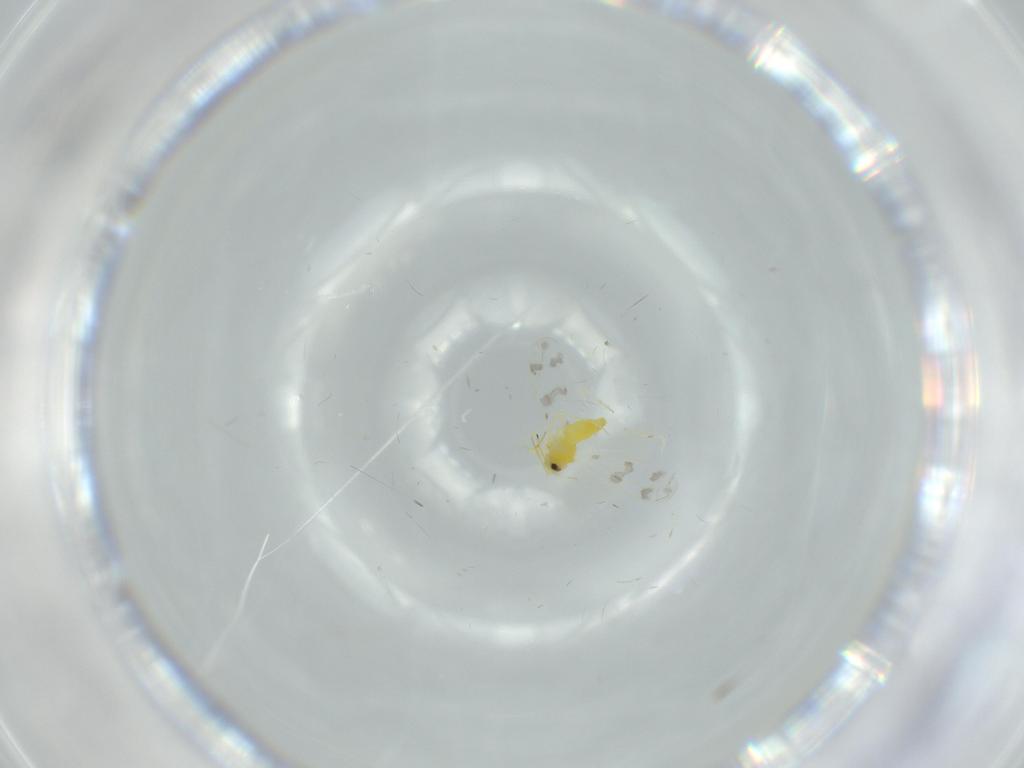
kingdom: Animalia
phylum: Arthropoda
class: Insecta
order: Hemiptera
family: Aleyrodidae
